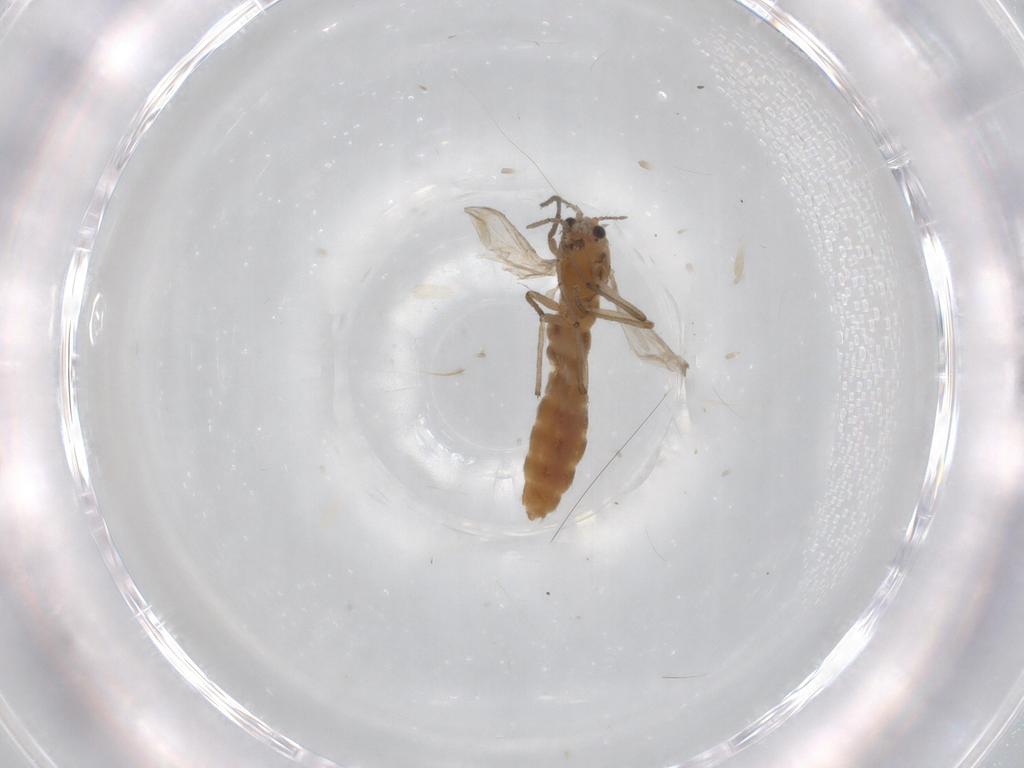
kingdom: Animalia
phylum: Arthropoda
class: Insecta
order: Diptera
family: Chironomidae
